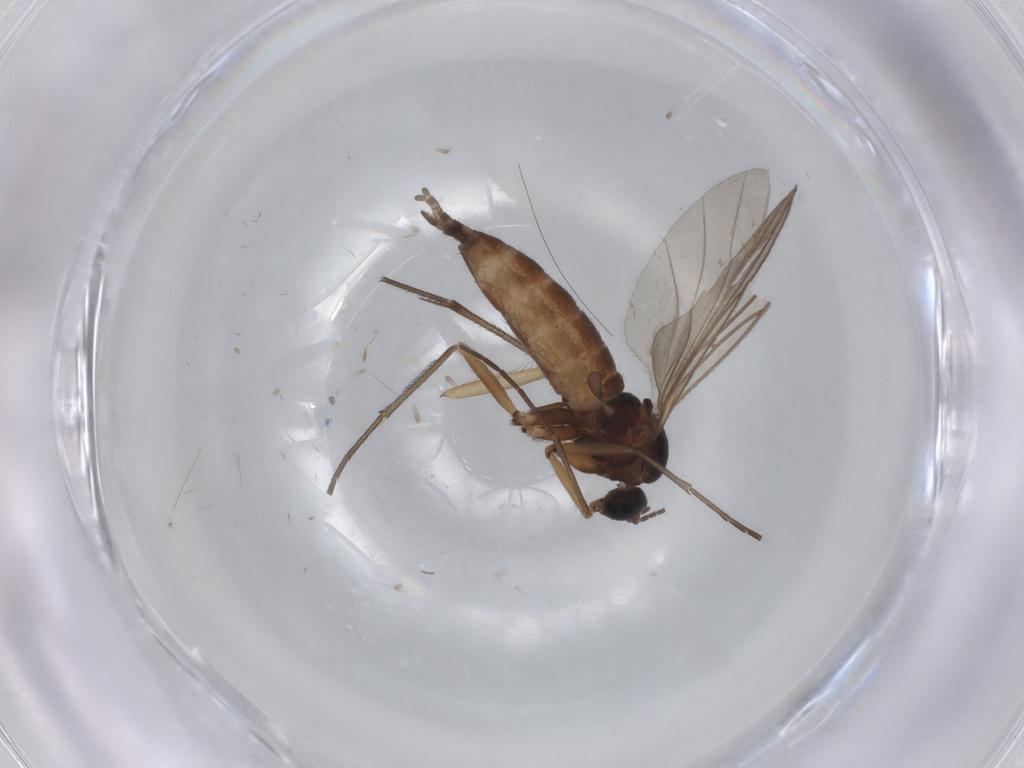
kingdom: Animalia
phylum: Arthropoda
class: Insecta
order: Diptera
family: Sciaridae
